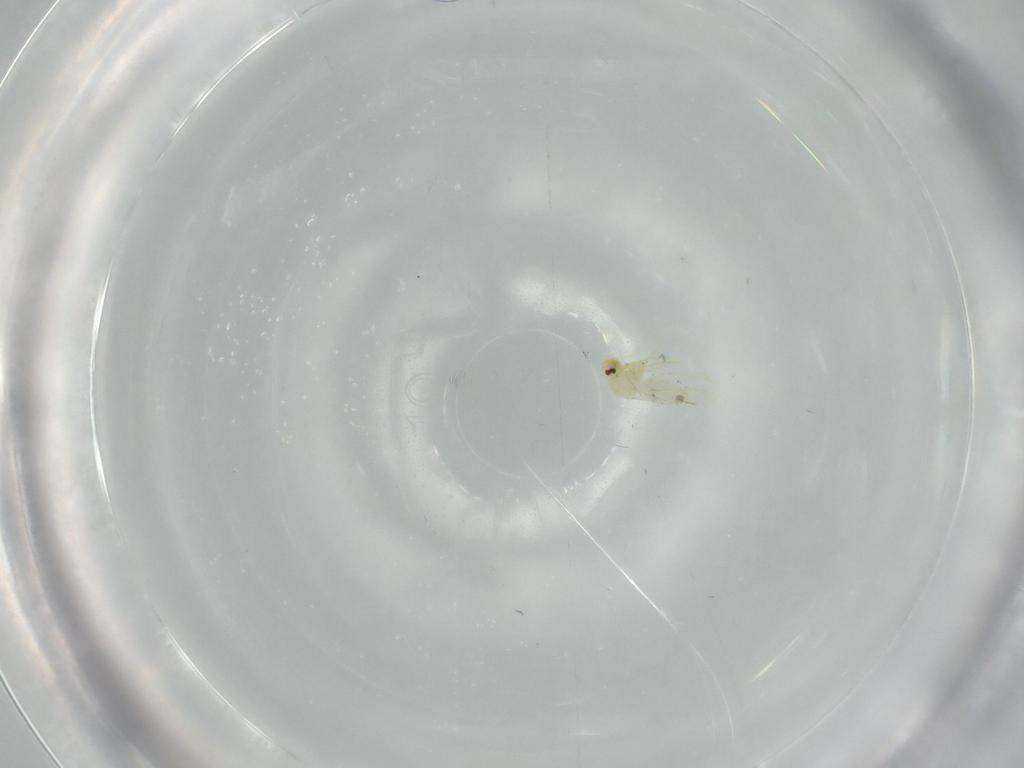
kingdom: Animalia
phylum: Arthropoda
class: Insecta
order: Hemiptera
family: Aleyrodidae
